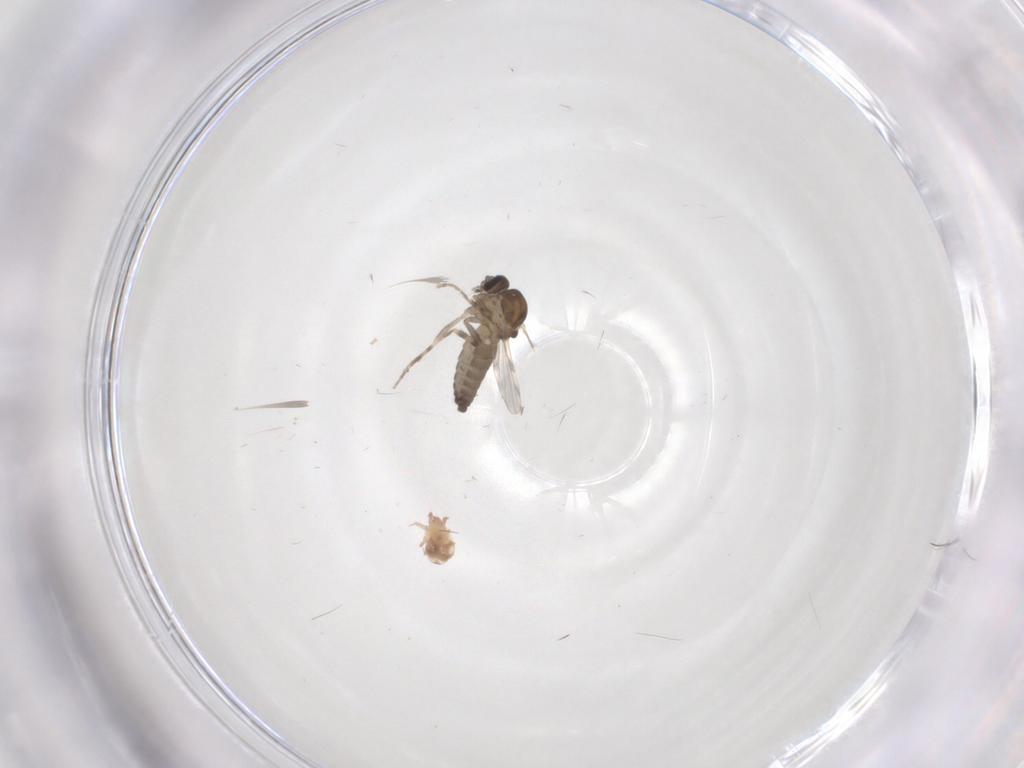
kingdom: Animalia
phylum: Arthropoda
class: Insecta
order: Diptera
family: Ceratopogonidae
